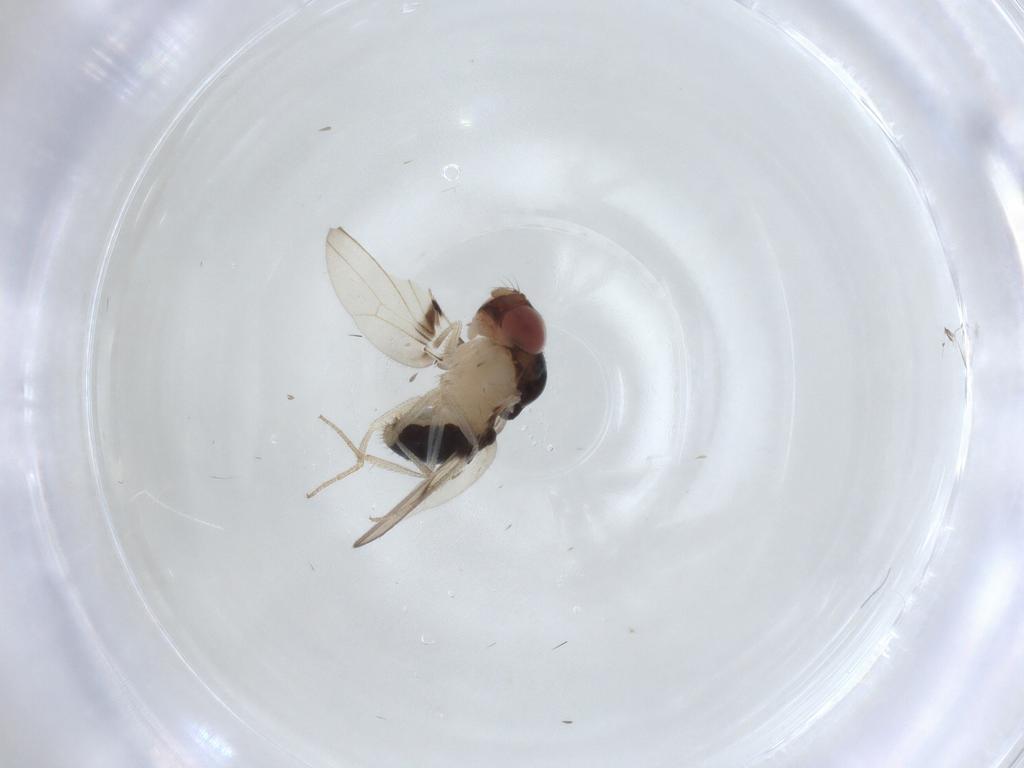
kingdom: Animalia
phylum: Arthropoda
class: Insecta
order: Diptera
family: Drosophilidae
